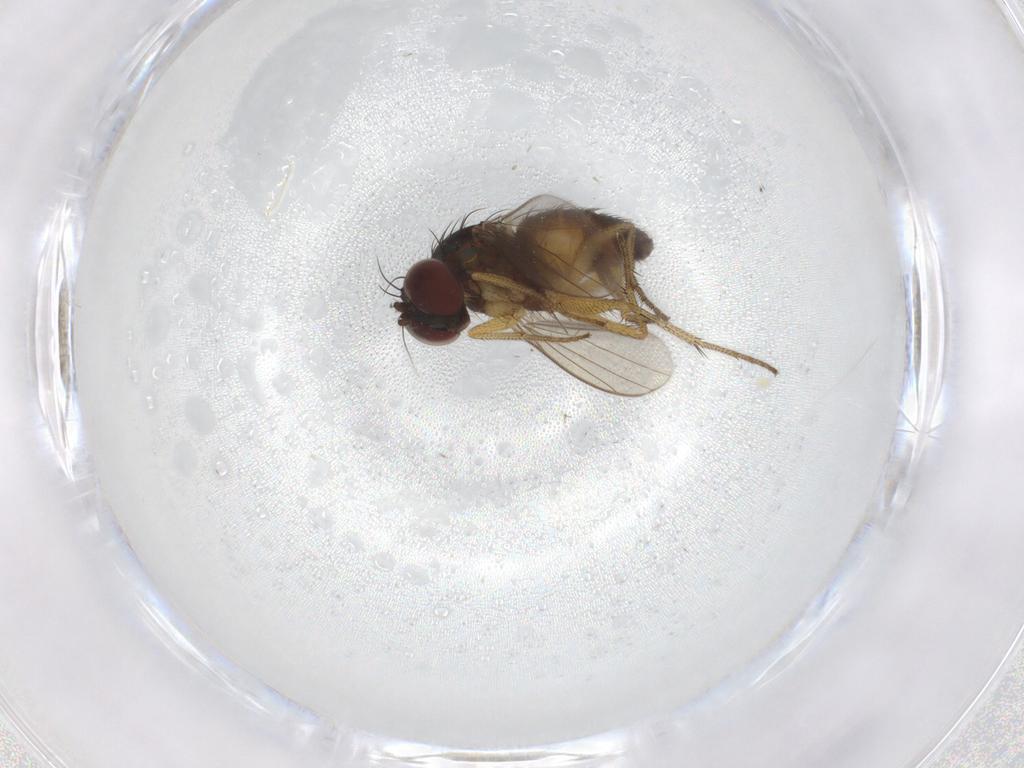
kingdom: Animalia
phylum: Arthropoda
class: Insecta
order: Diptera
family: Ceratopogonidae
